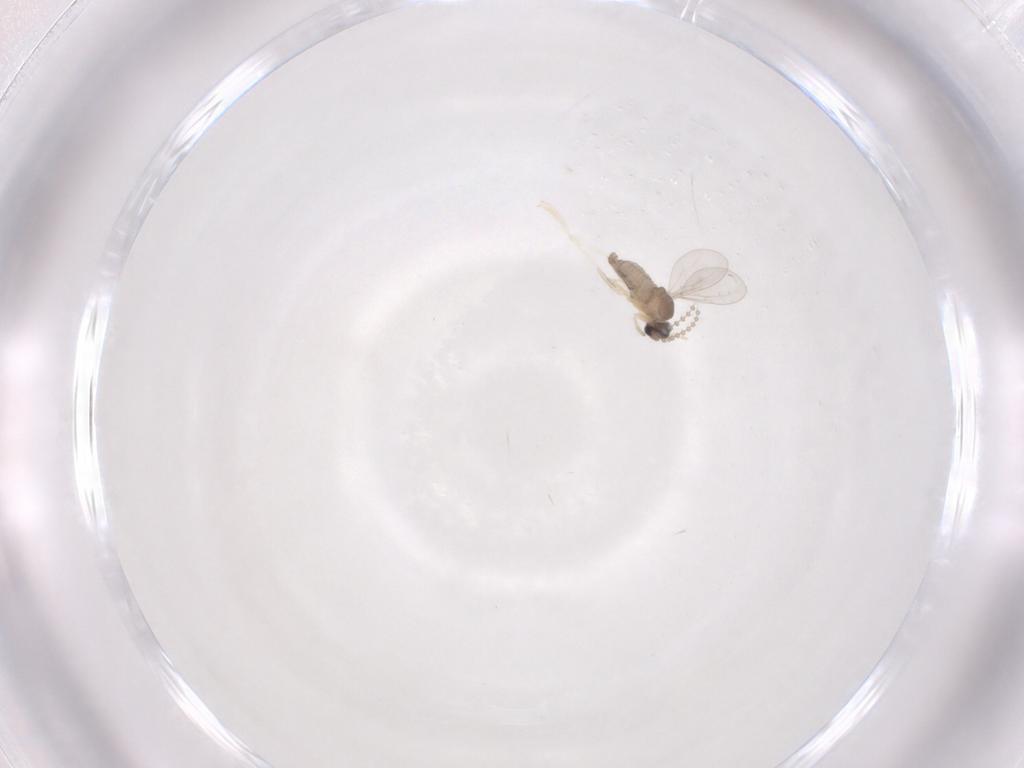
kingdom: Animalia
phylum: Arthropoda
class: Insecta
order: Diptera
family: Cecidomyiidae
